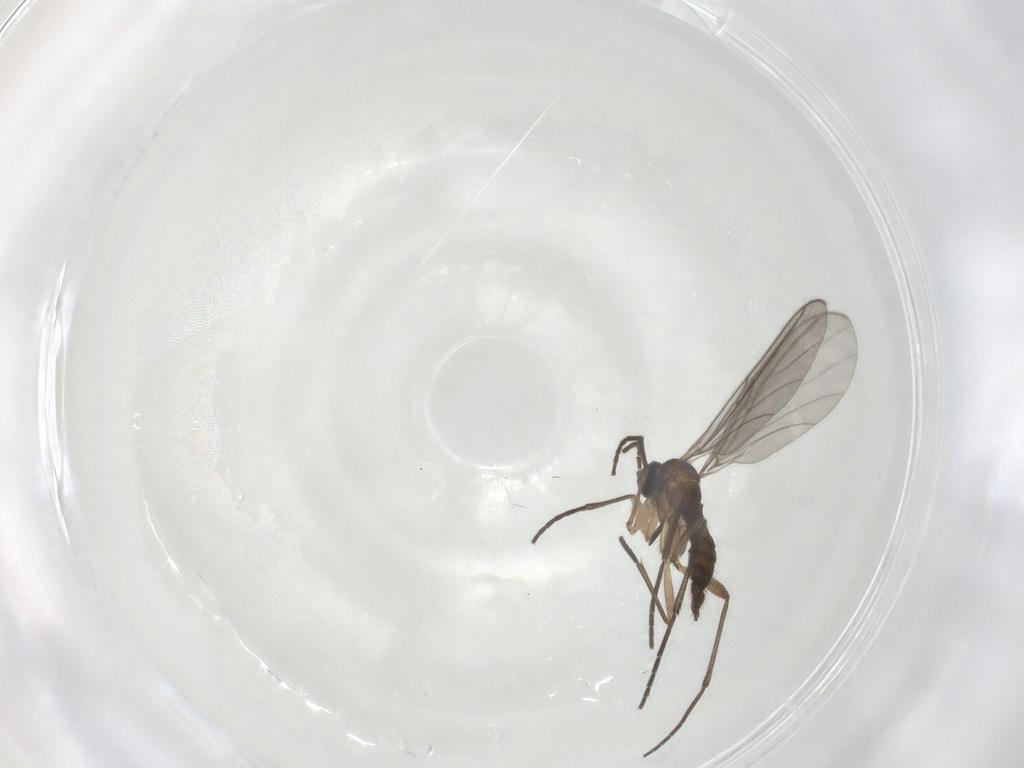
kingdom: Animalia
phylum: Arthropoda
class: Insecta
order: Diptera
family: Sciaridae
